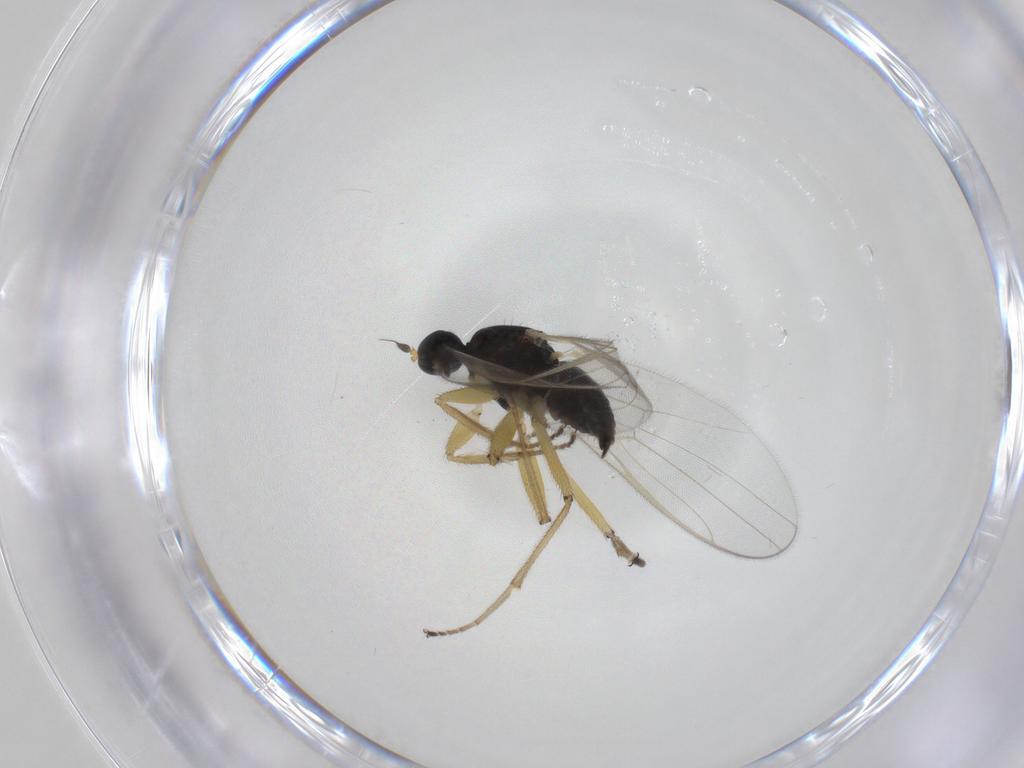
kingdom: Animalia
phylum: Arthropoda
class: Insecta
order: Diptera
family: Hybotidae
